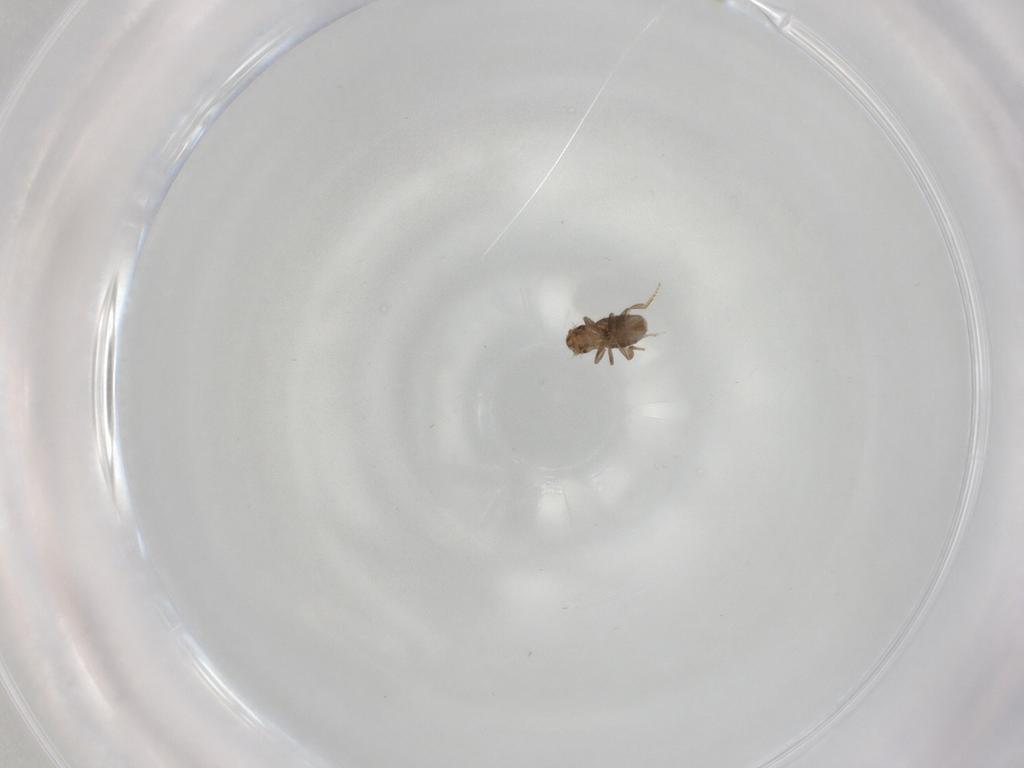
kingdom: Animalia
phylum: Arthropoda
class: Insecta
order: Diptera
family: Cecidomyiidae
